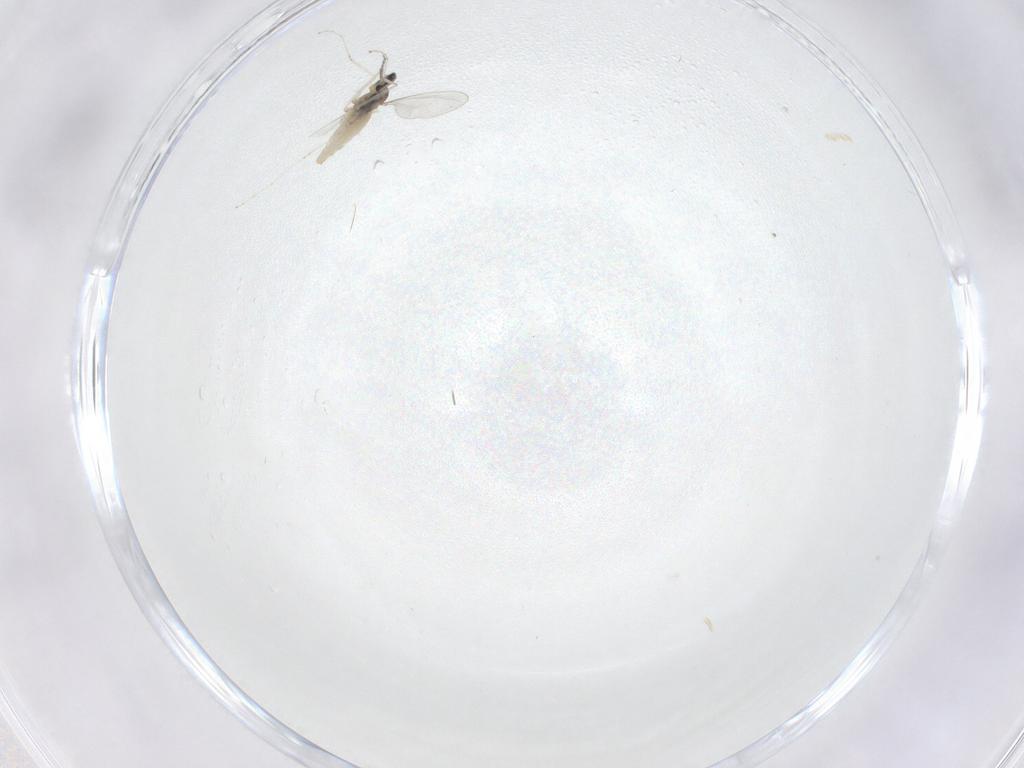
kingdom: Animalia
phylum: Arthropoda
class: Insecta
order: Diptera
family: Cecidomyiidae
